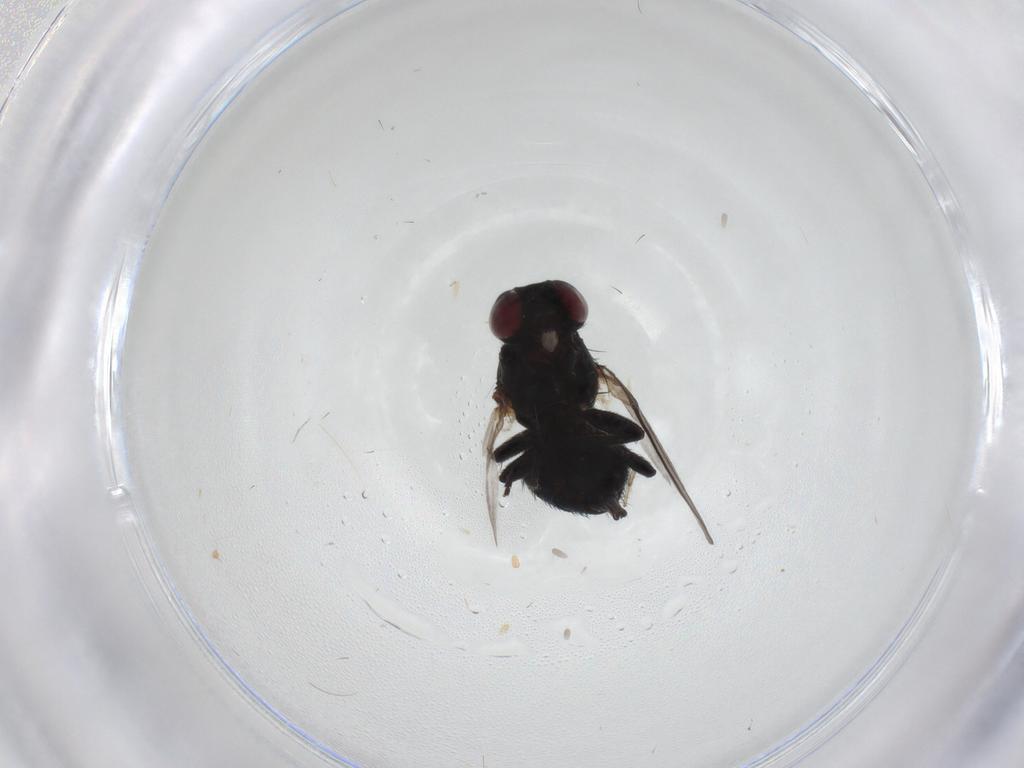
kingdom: Animalia
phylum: Arthropoda
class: Insecta
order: Diptera
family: Agromyzidae
